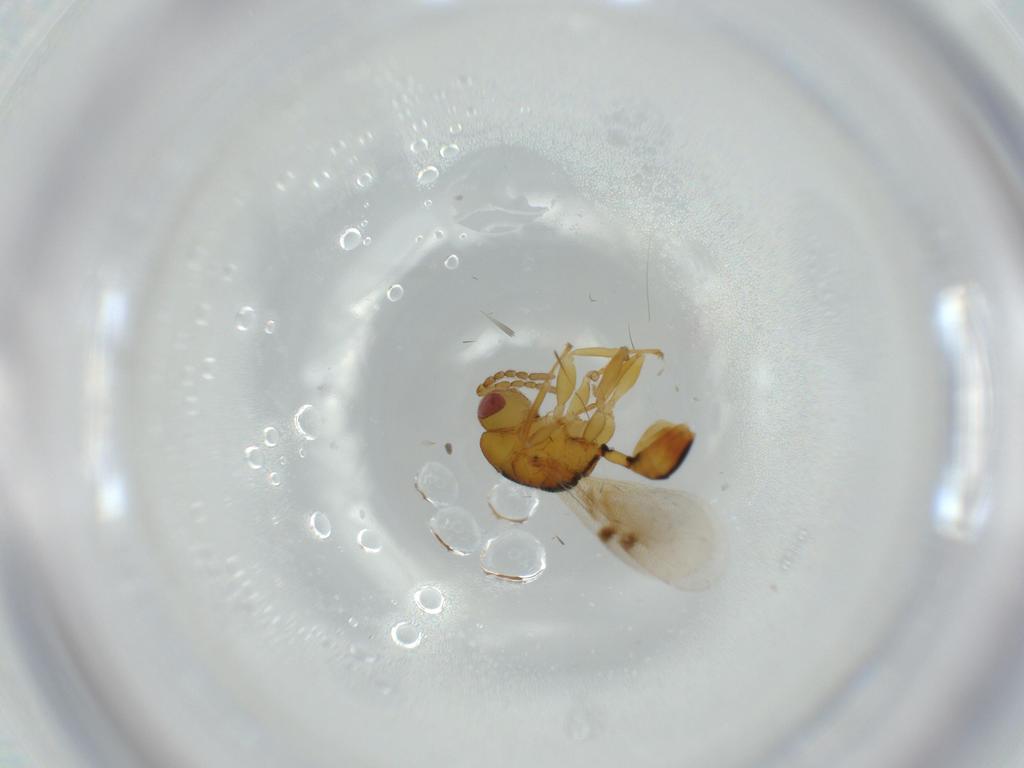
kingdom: Animalia
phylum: Arthropoda
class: Insecta
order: Hymenoptera
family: Eurytomidae
